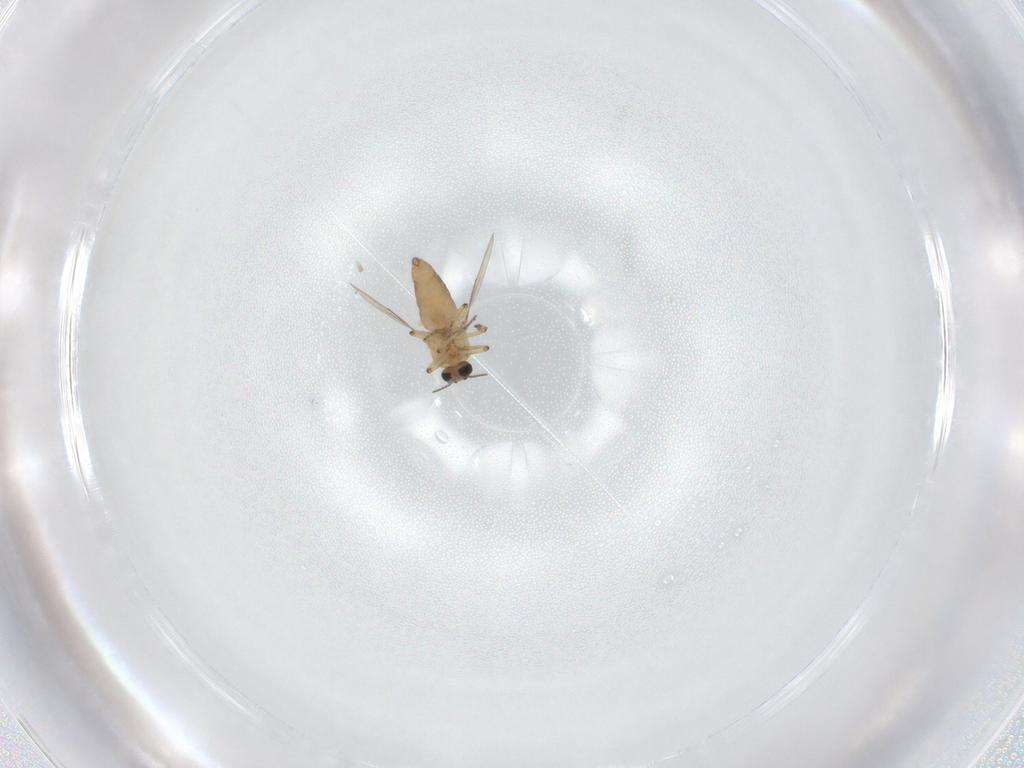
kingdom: Animalia
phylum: Arthropoda
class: Insecta
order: Diptera
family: Ceratopogonidae
